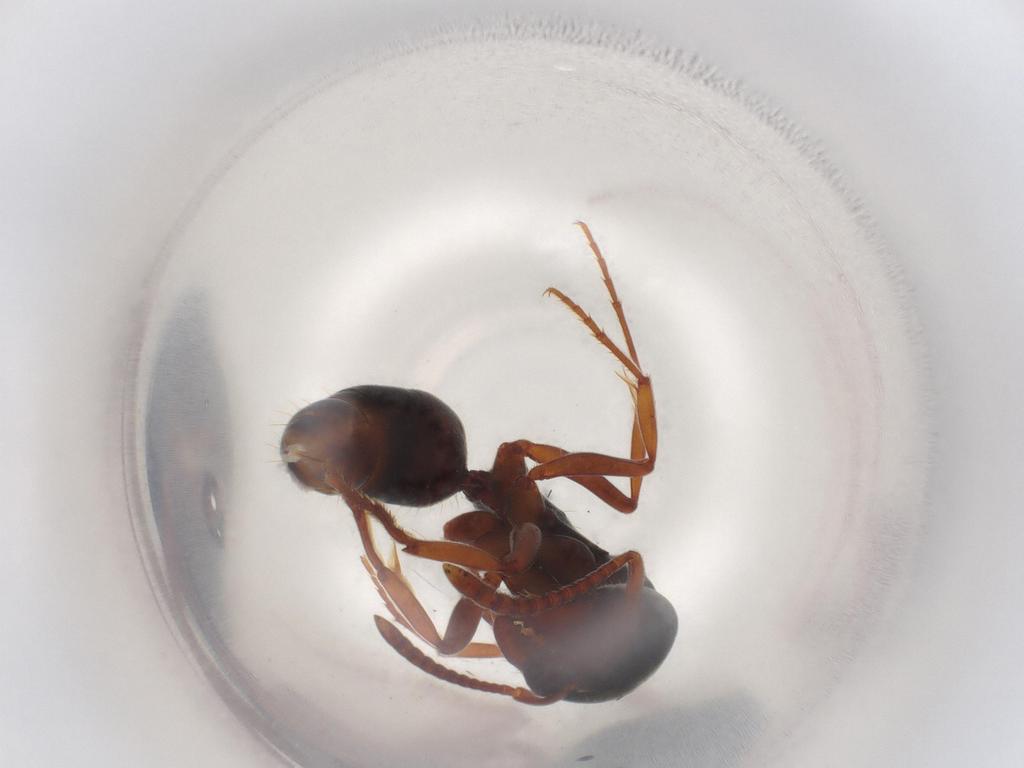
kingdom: Animalia
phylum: Arthropoda
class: Insecta
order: Hymenoptera
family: Formicidae
